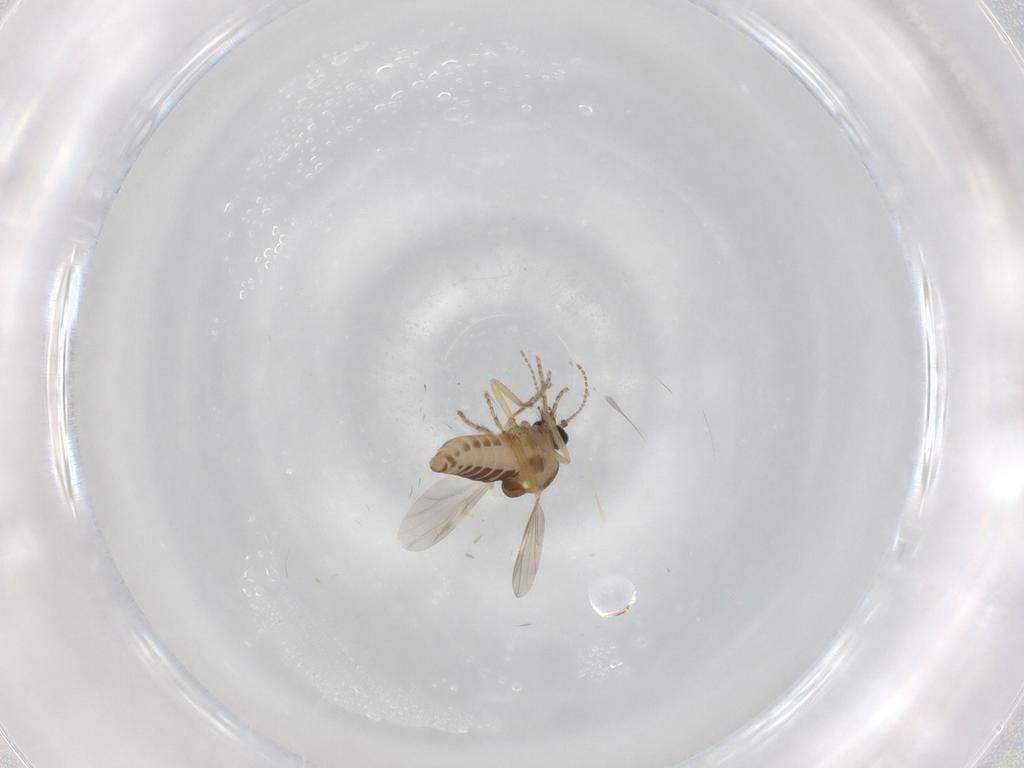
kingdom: Animalia
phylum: Arthropoda
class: Insecta
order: Diptera
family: Ceratopogonidae
